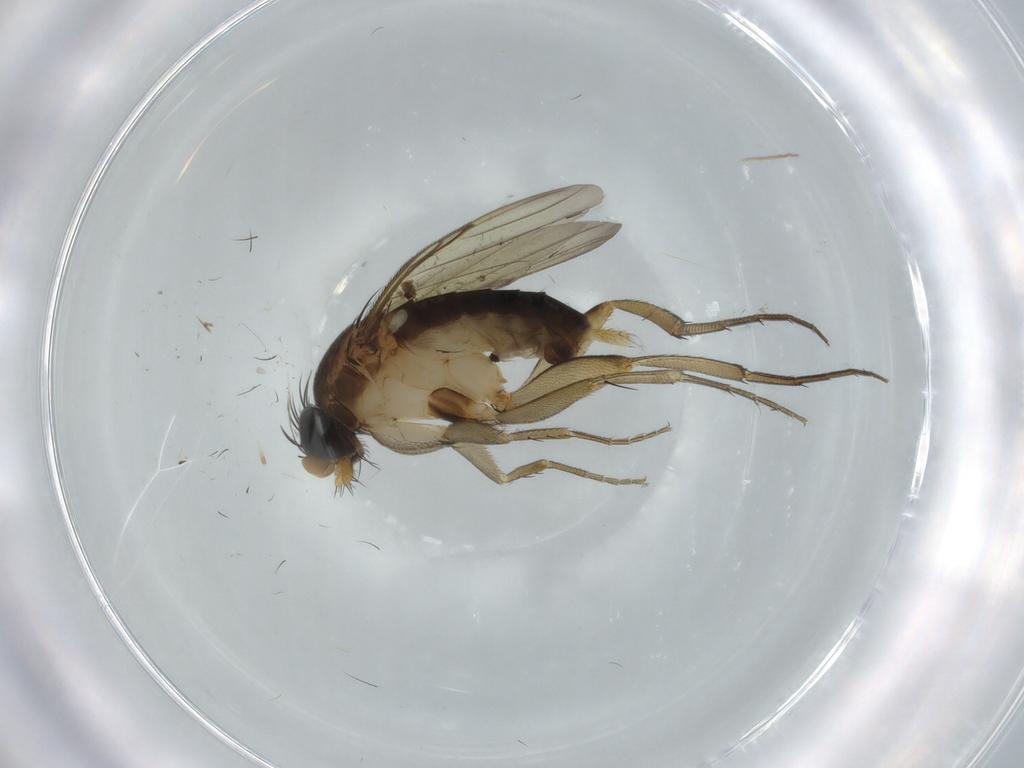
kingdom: Animalia
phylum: Arthropoda
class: Insecta
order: Diptera
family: Phoridae
